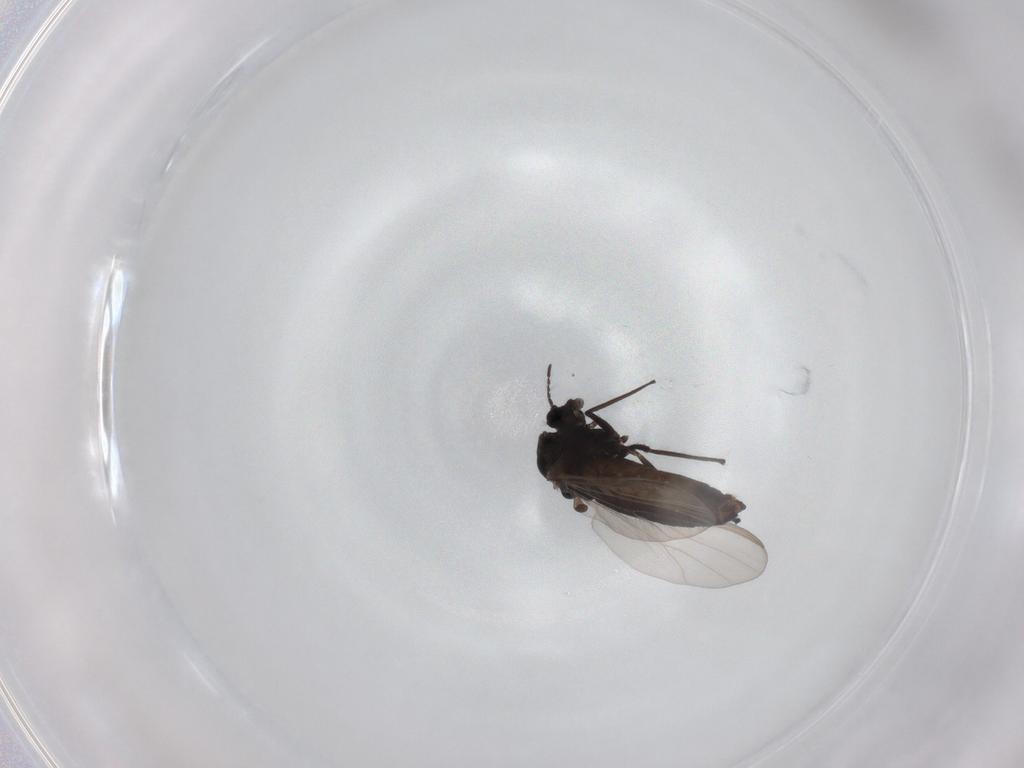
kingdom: Animalia
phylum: Arthropoda
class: Insecta
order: Diptera
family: Chironomidae
